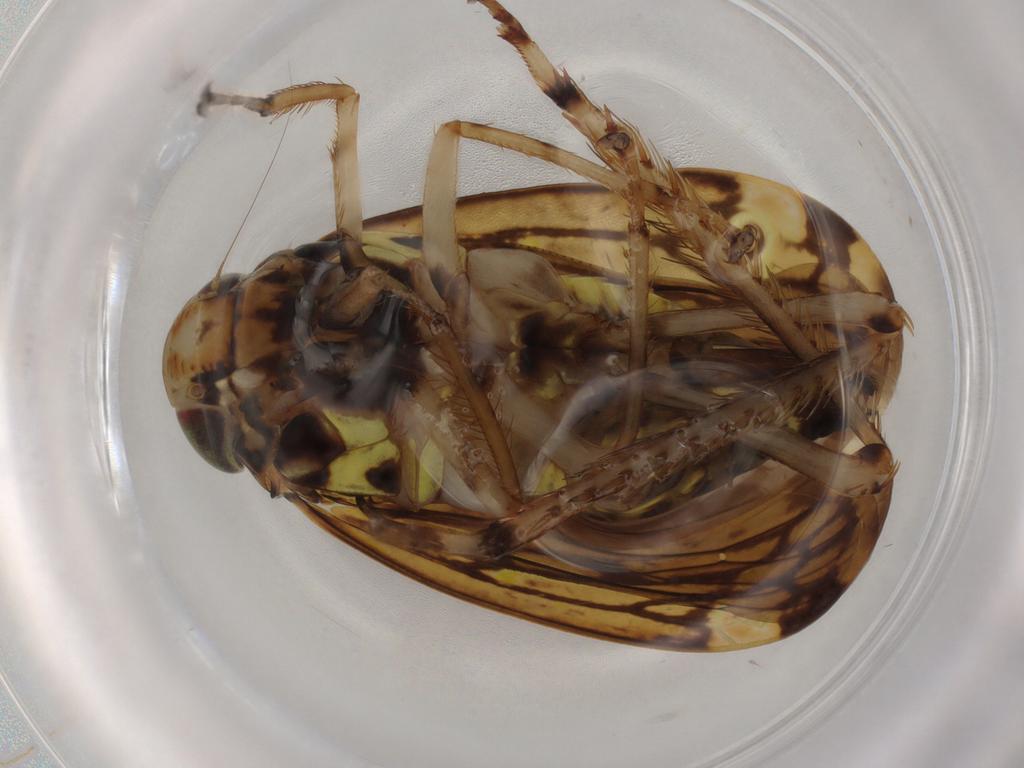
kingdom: Animalia
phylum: Arthropoda
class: Insecta
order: Hemiptera
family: Cicadellidae
